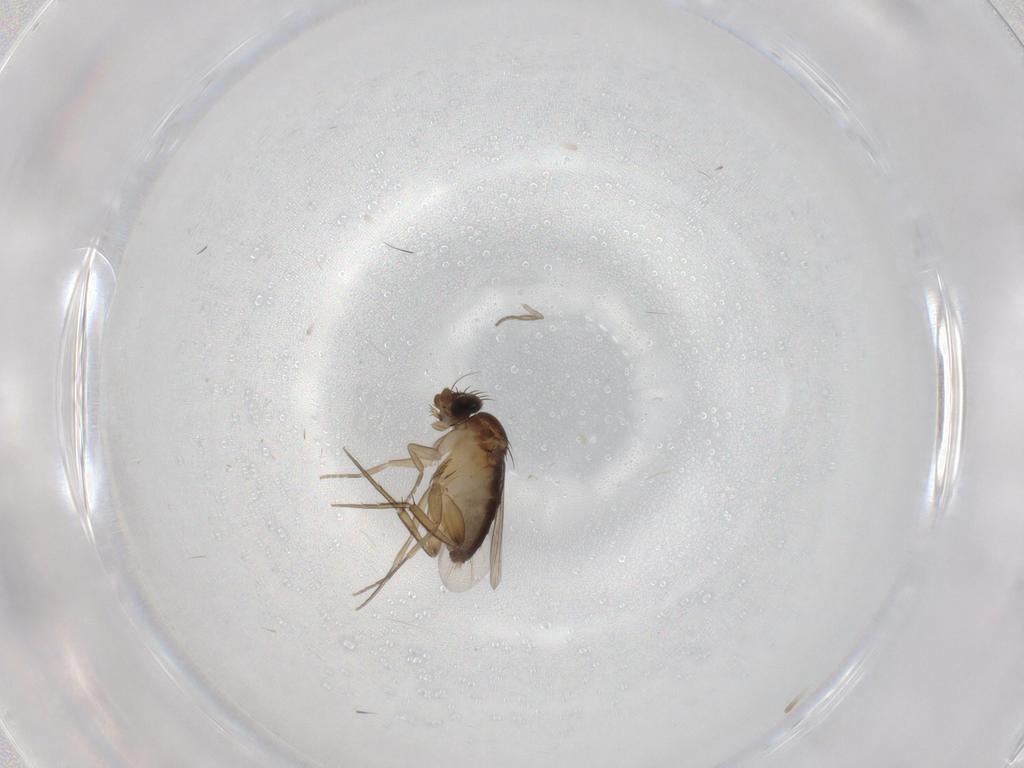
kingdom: Animalia
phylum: Arthropoda
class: Insecta
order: Diptera
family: Phoridae
